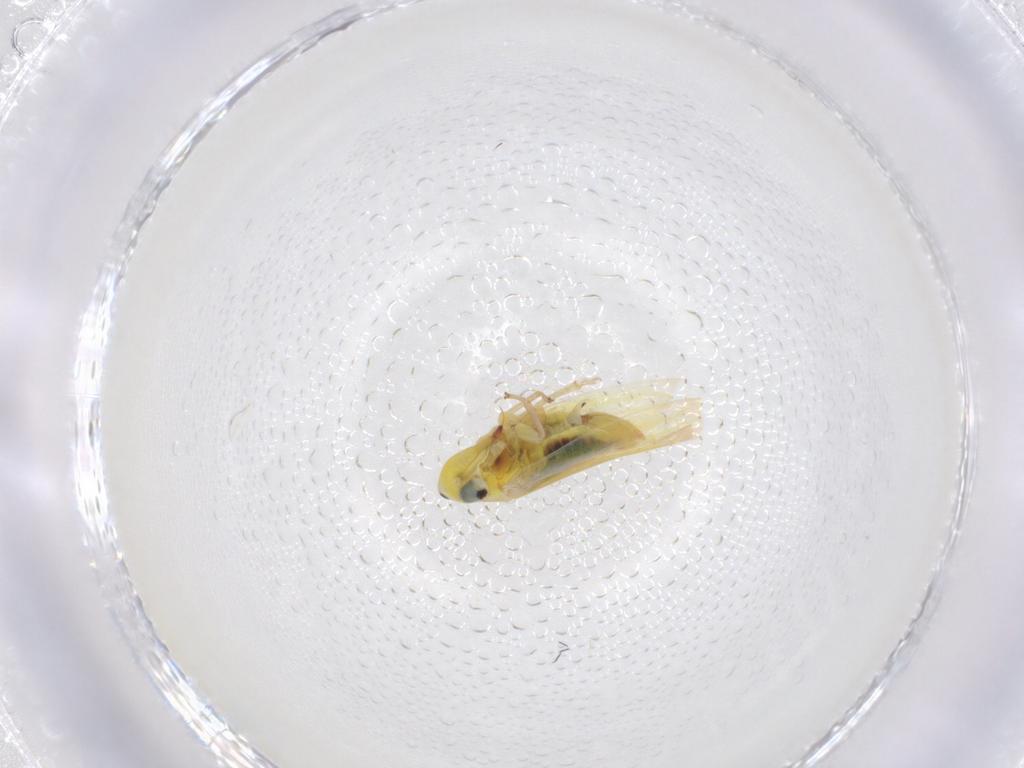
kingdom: Animalia
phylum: Arthropoda
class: Insecta
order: Hemiptera
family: Cicadellidae
